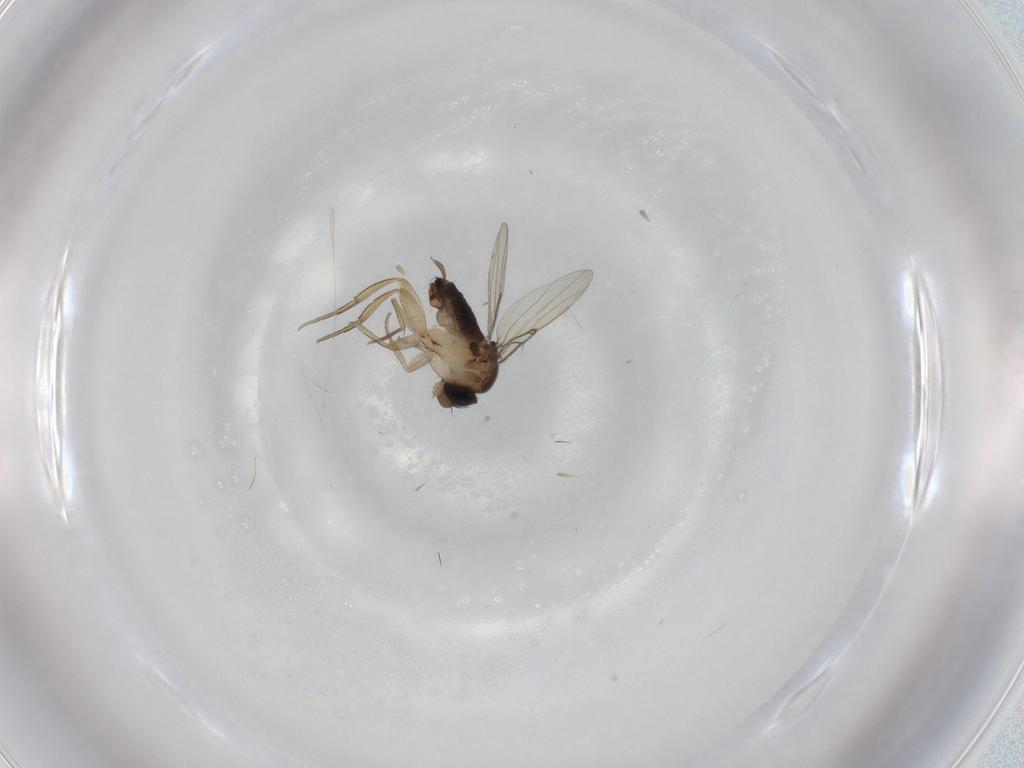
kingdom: Animalia
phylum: Arthropoda
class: Insecta
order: Diptera
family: Phoridae
